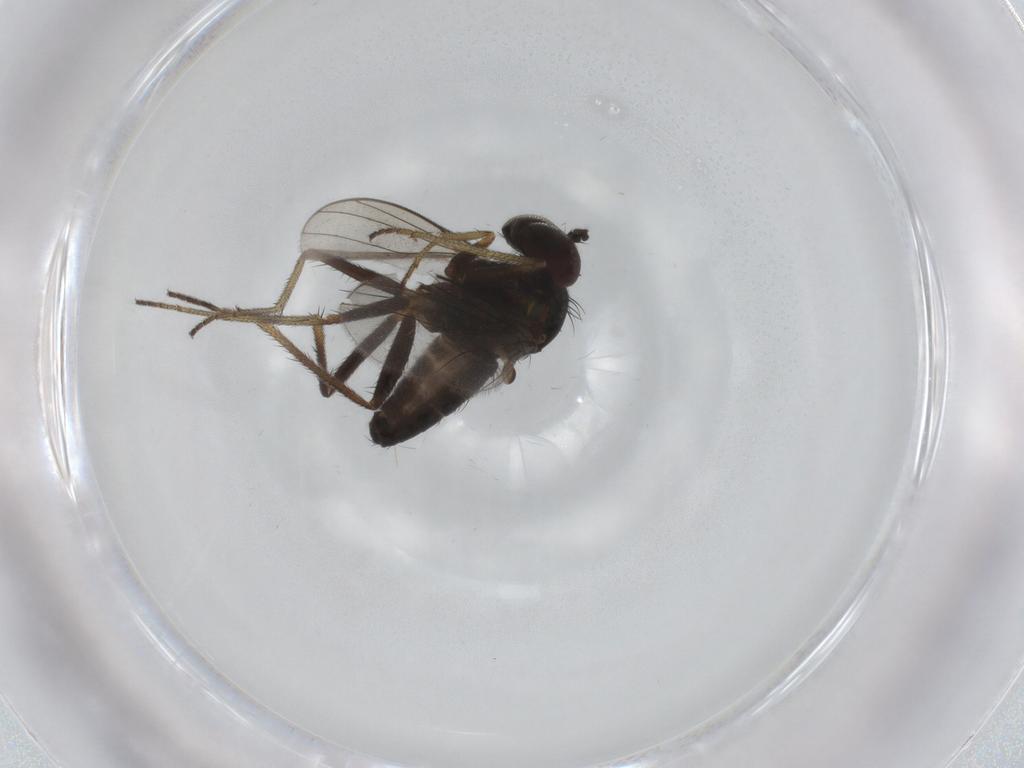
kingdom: Animalia
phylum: Arthropoda
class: Insecta
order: Diptera
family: Dolichopodidae
